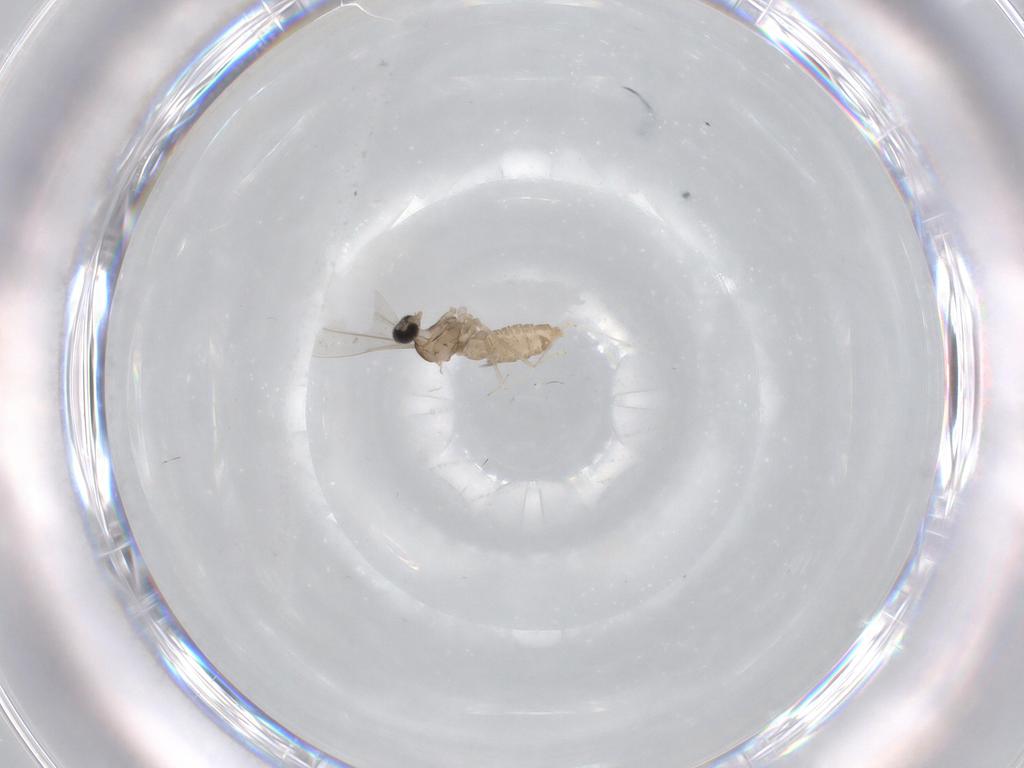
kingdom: Animalia
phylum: Arthropoda
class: Insecta
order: Diptera
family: Cecidomyiidae
